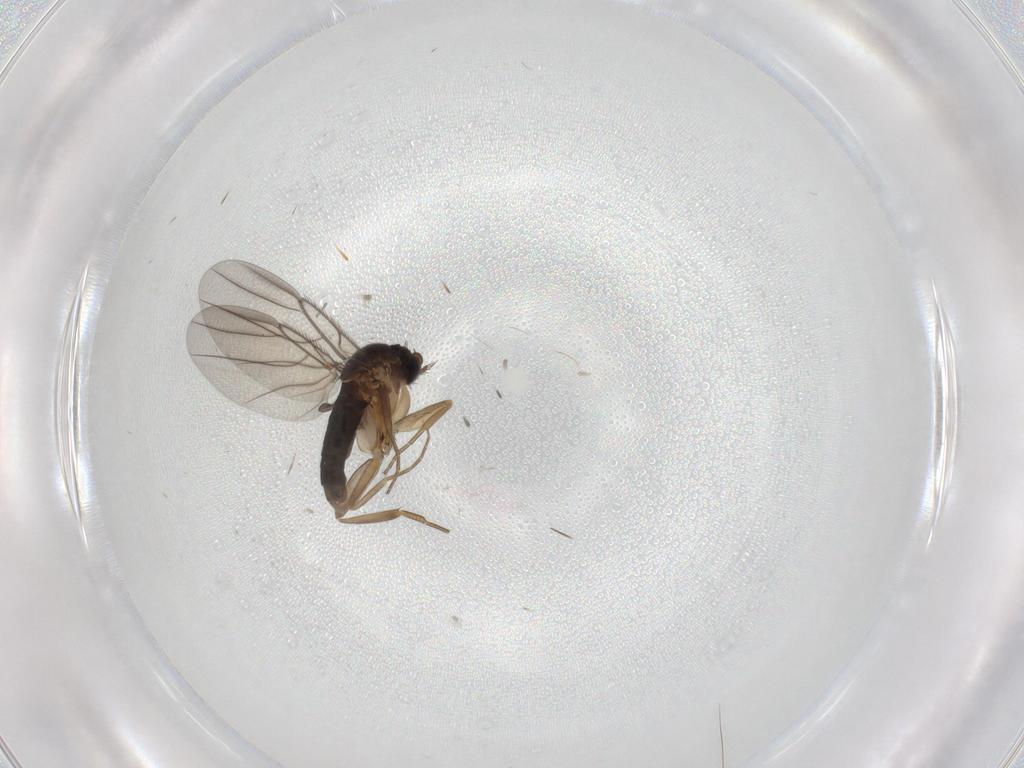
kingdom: Animalia
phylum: Arthropoda
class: Insecta
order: Diptera
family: Phoridae
